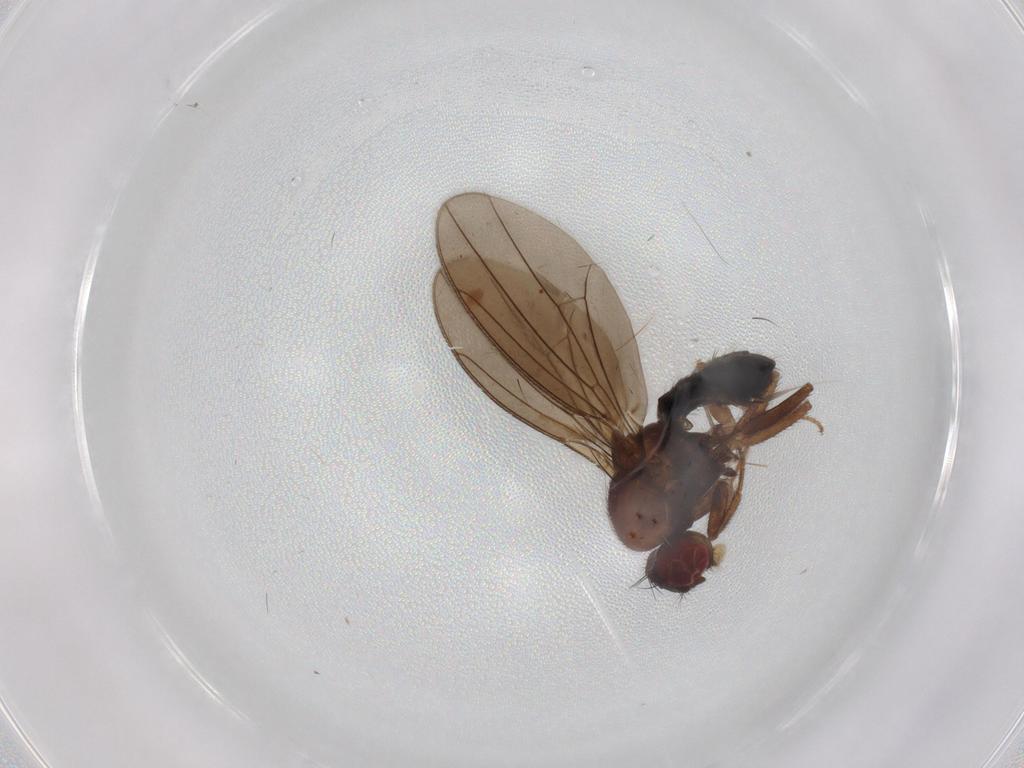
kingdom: Animalia
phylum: Arthropoda
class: Insecta
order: Diptera
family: Drosophilidae
